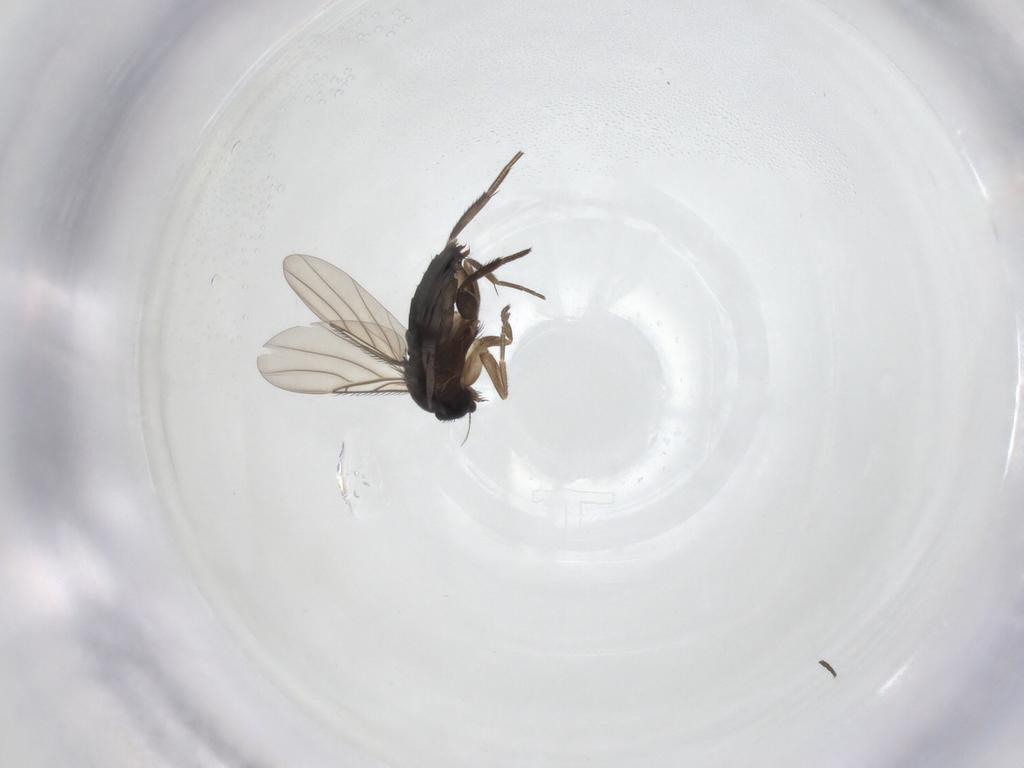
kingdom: Animalia
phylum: Arthropoda
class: Insecta
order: Diptera
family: Phoridae
